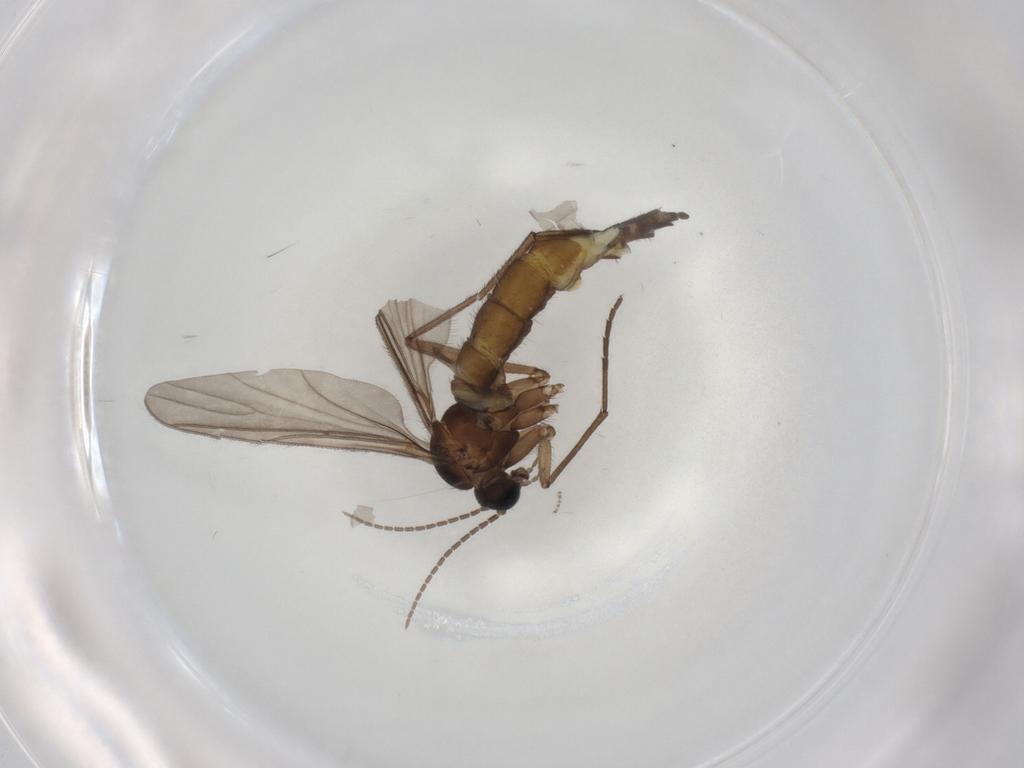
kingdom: Animalia
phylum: Arthropoda
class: Insecta
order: Diptera
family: Sciaridae
